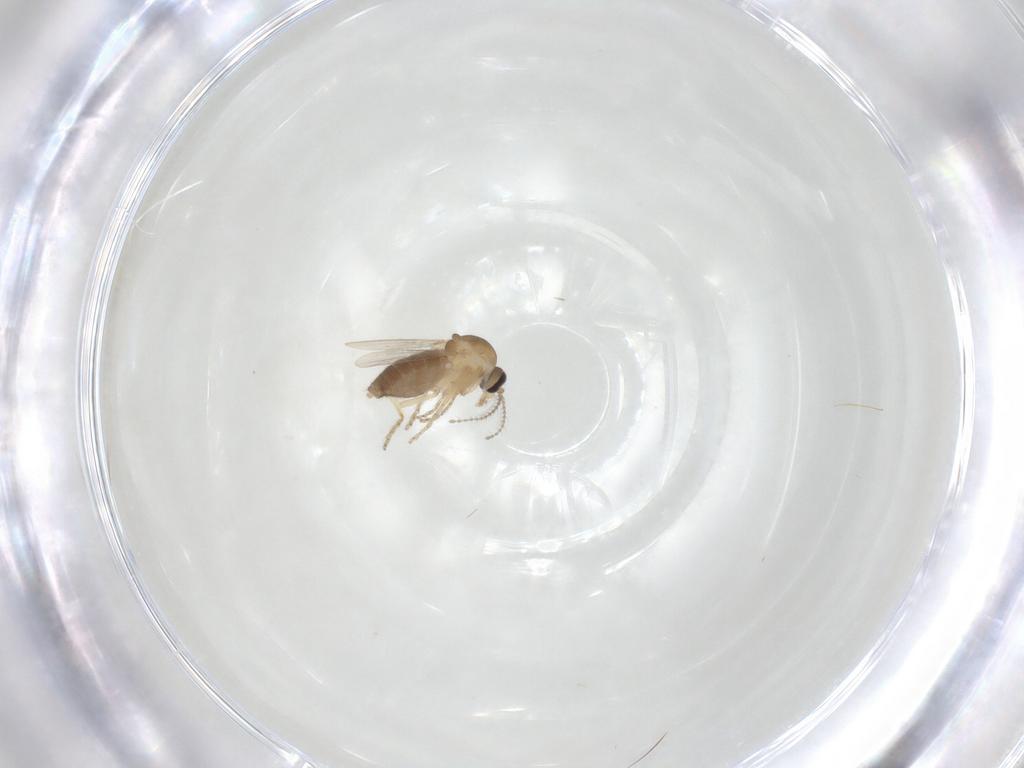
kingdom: Animalia
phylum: Arthropoda
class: Insecta
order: Diptera
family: Ceratopogonidae
